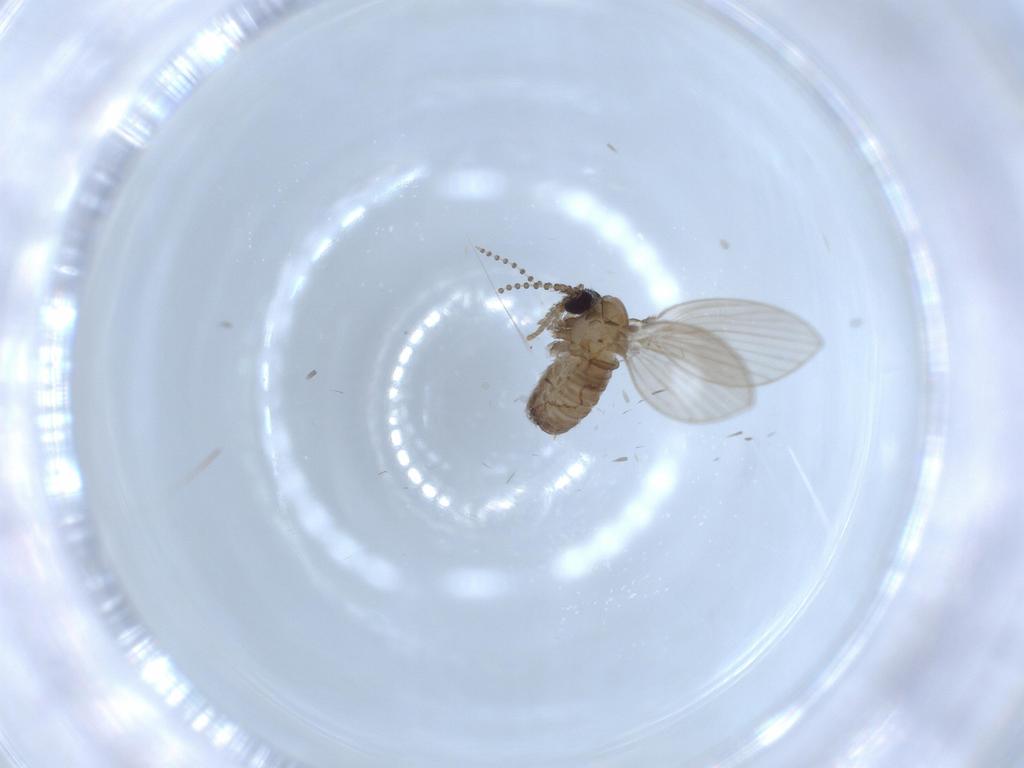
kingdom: Animalia
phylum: Arthropoda
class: Insecta
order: Diptera
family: Psychodidae
